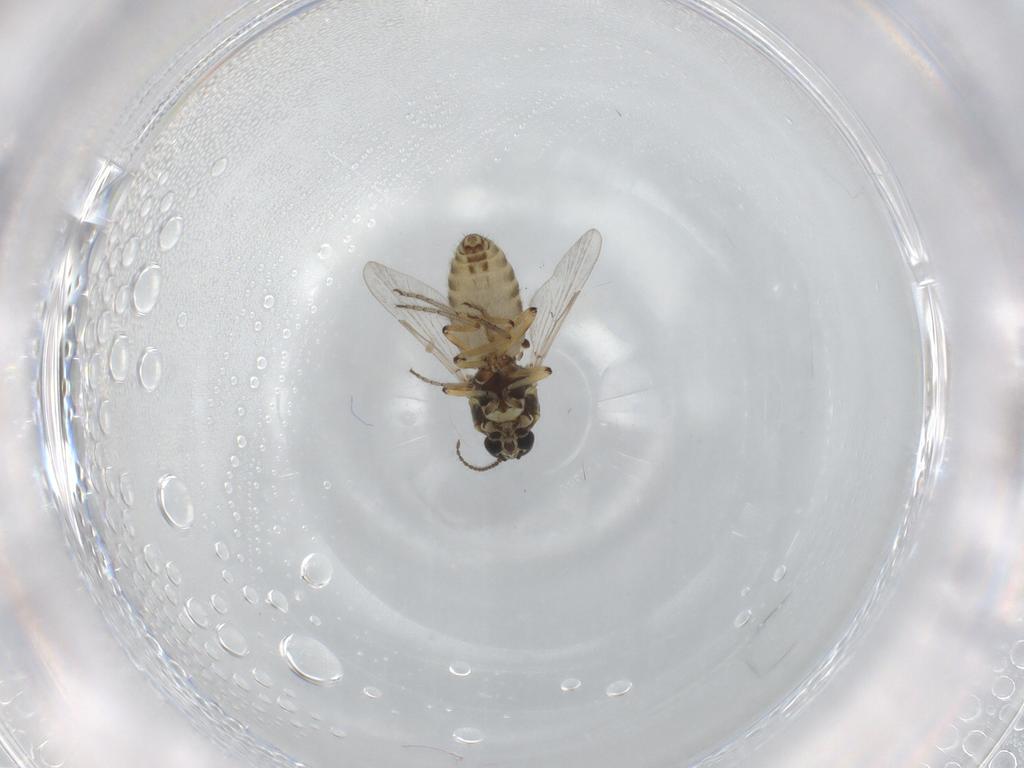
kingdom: Animalia
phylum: Arthropoda
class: Insecta
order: Diptera
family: Ceratopogonidae
